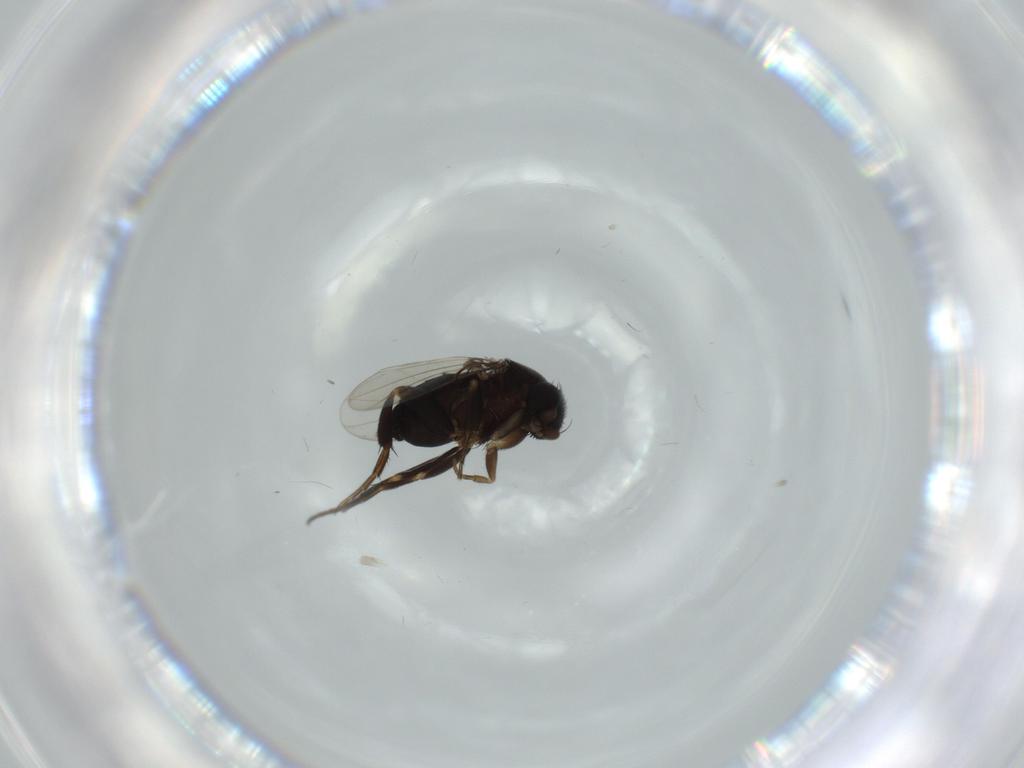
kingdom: Animalia
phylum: Arthropoda
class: Insecta
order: Diptera
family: Phoridae
